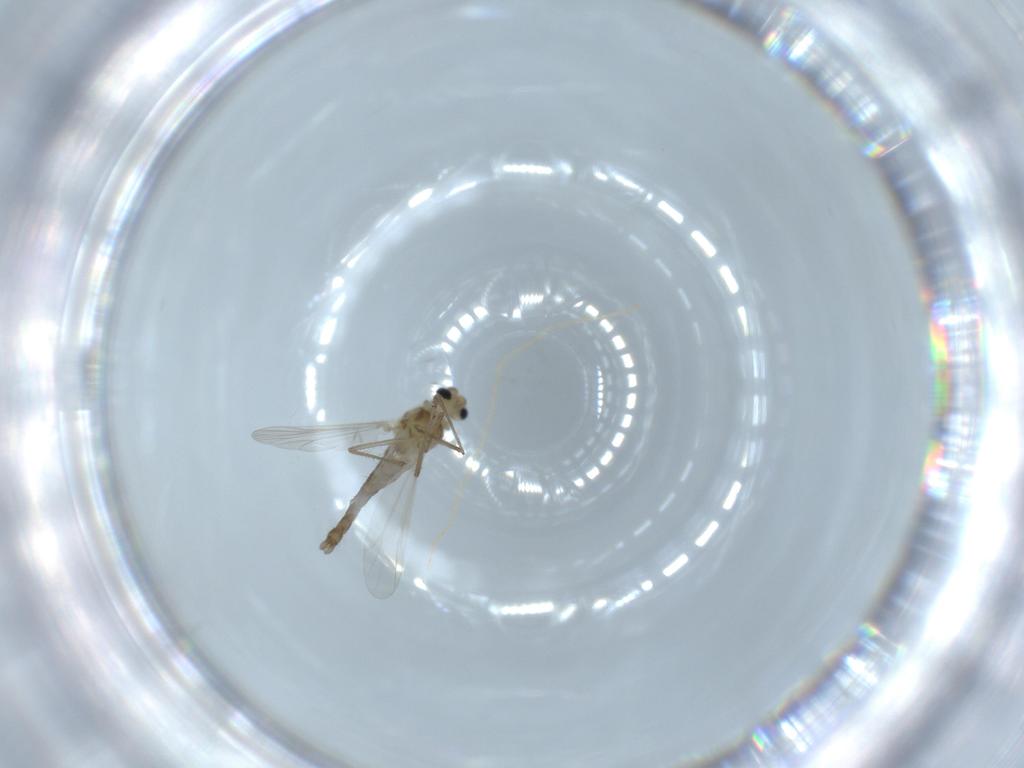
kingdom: Animalia
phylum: Arthropoda
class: Insecta
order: Diptera
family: Chironomidae
